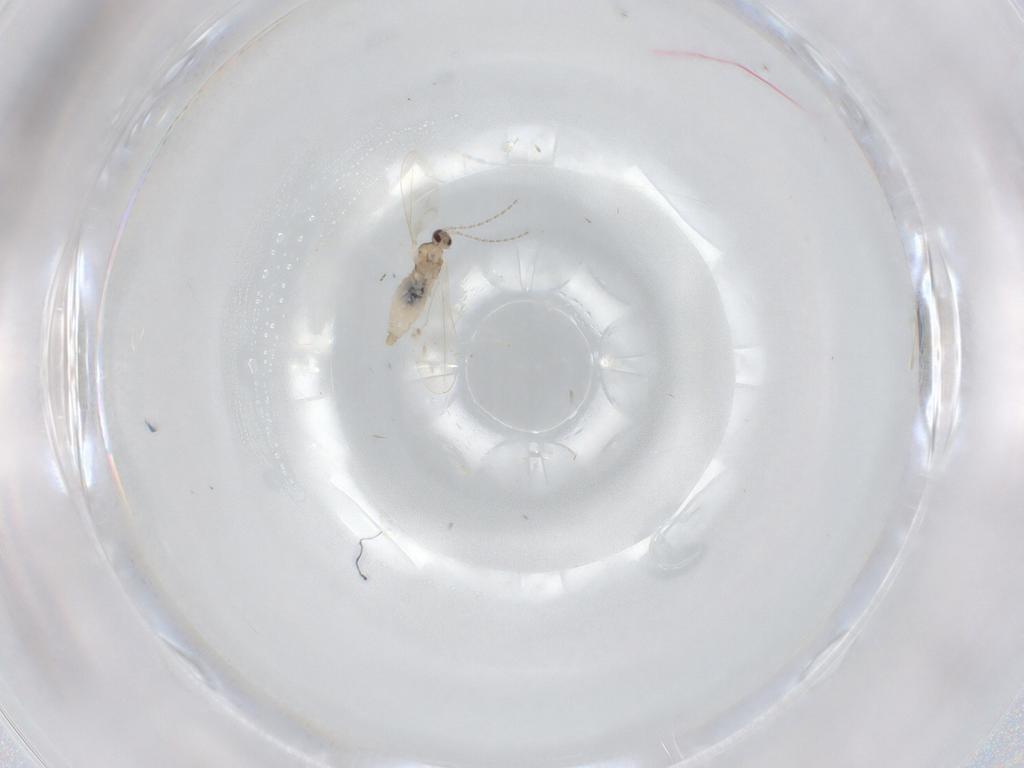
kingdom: Animalia
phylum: Arthropoda
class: Insecta
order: Diptera
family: Cecidomyiidae
